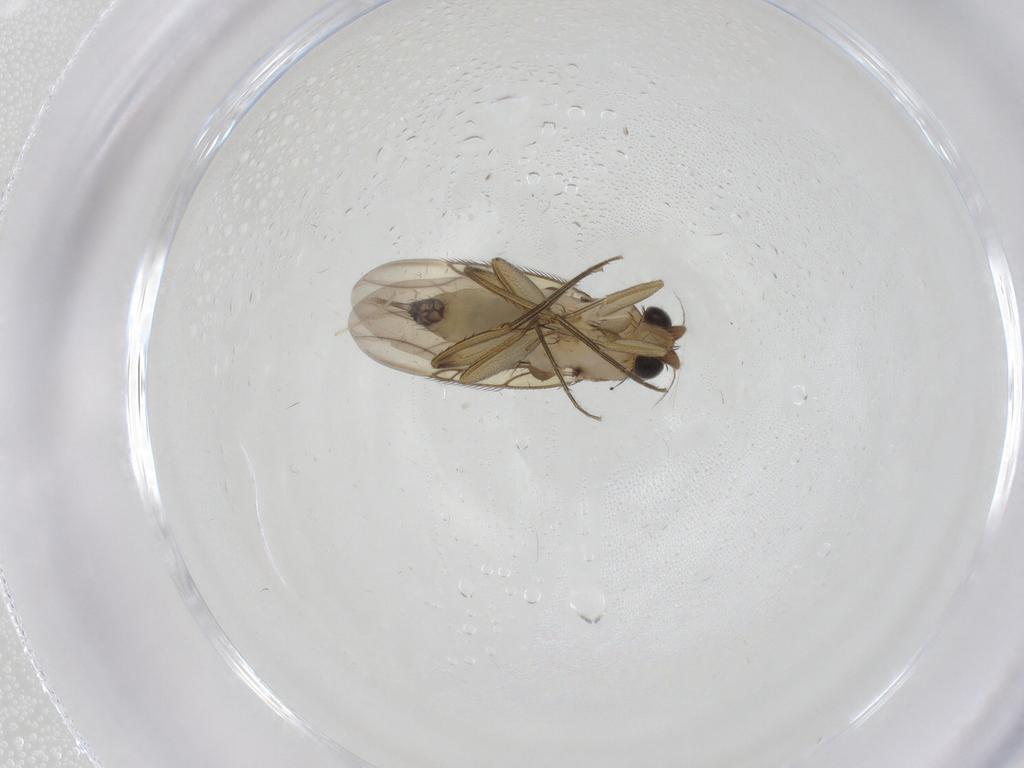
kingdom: Animalia
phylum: Arthropoda
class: Insecta
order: Diptera
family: Phoridae
